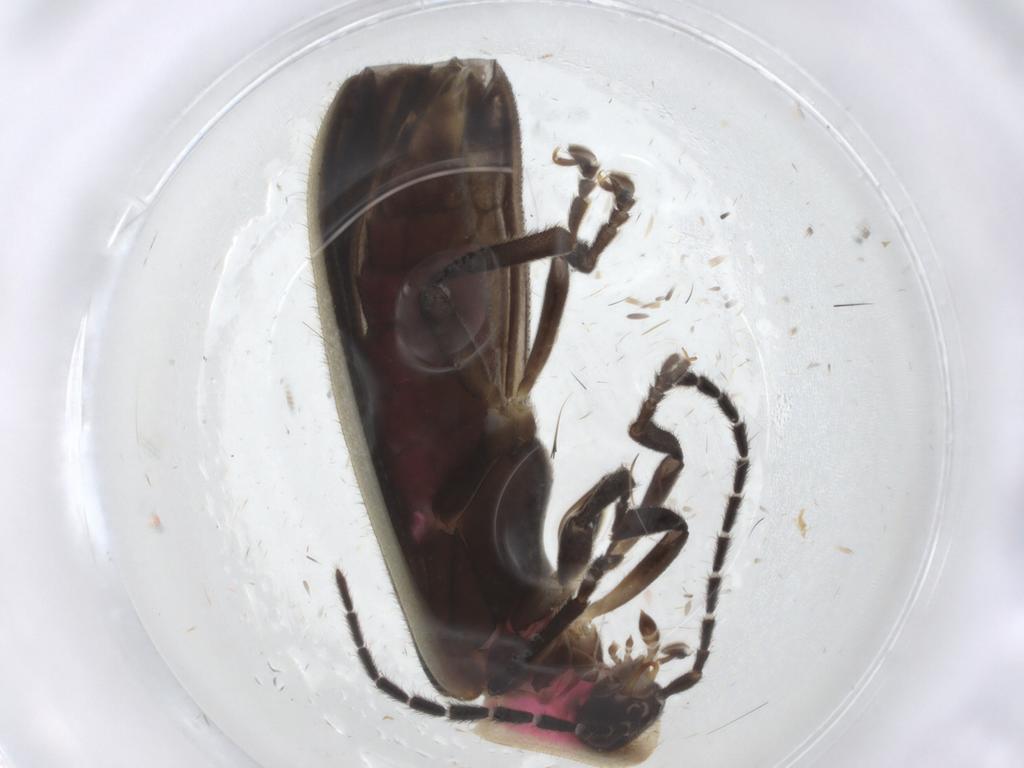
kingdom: Animalia
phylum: Arthropoda
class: Insecta
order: Coleoptera
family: Lampyridae
